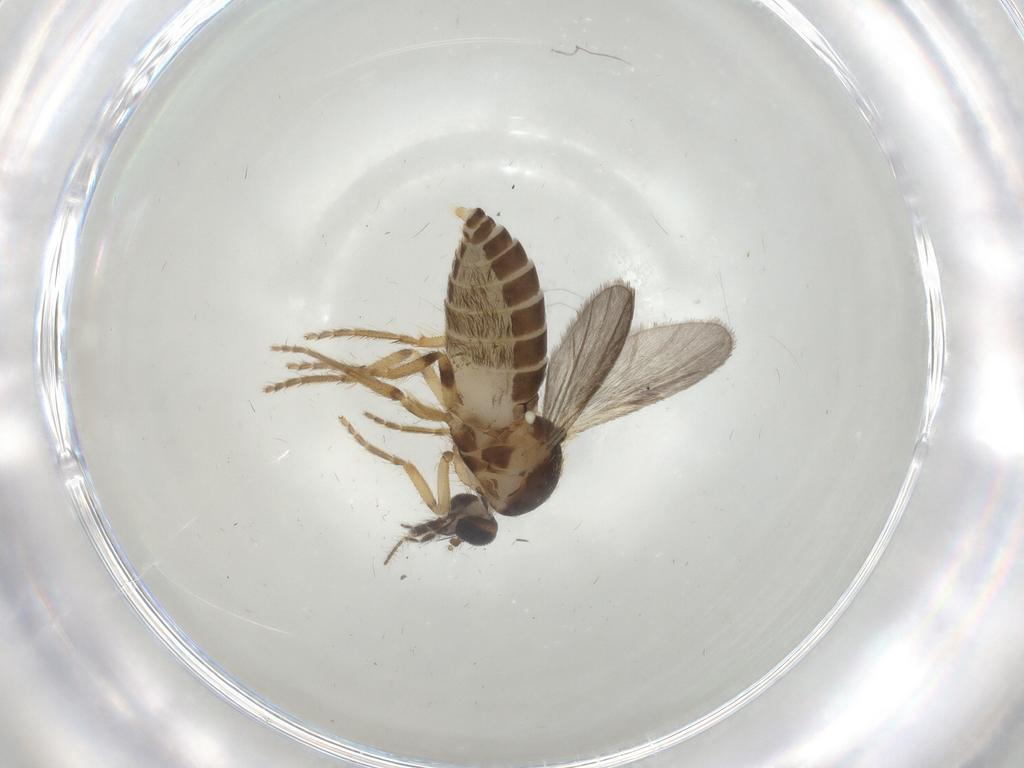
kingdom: Animalia
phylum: Arthropoda
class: Insecta
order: Diptera
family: Ceratopogonidae
